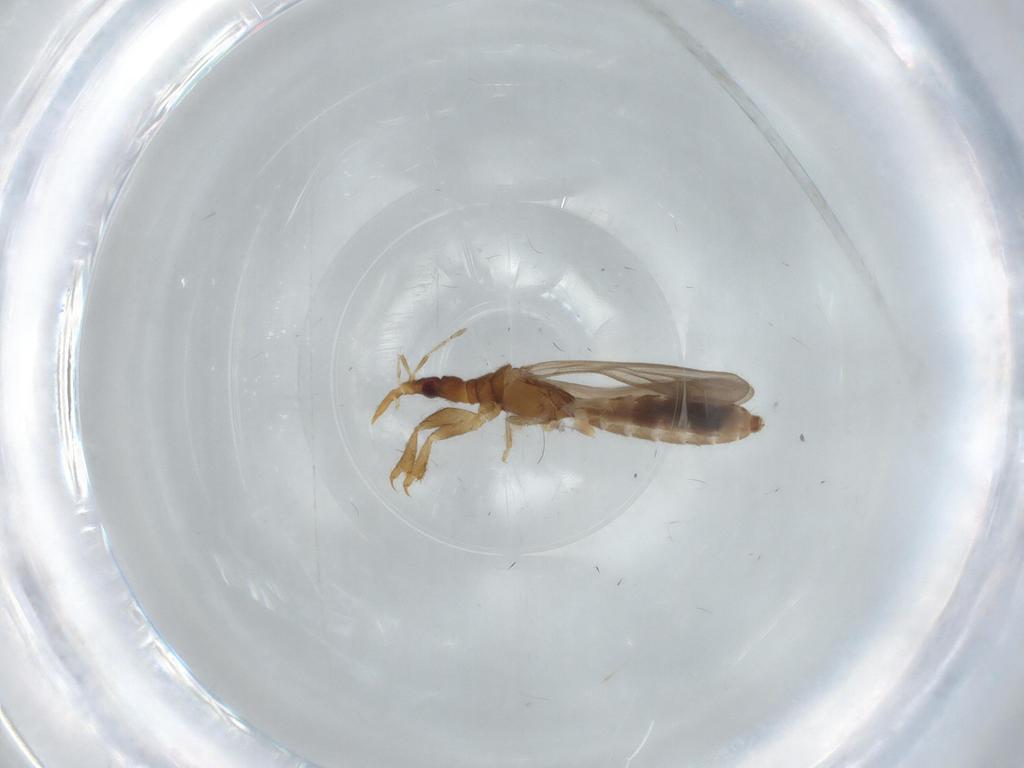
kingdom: Animalia
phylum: Arthropoda
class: Insecta
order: Hemiptera
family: Enicocephalidae
